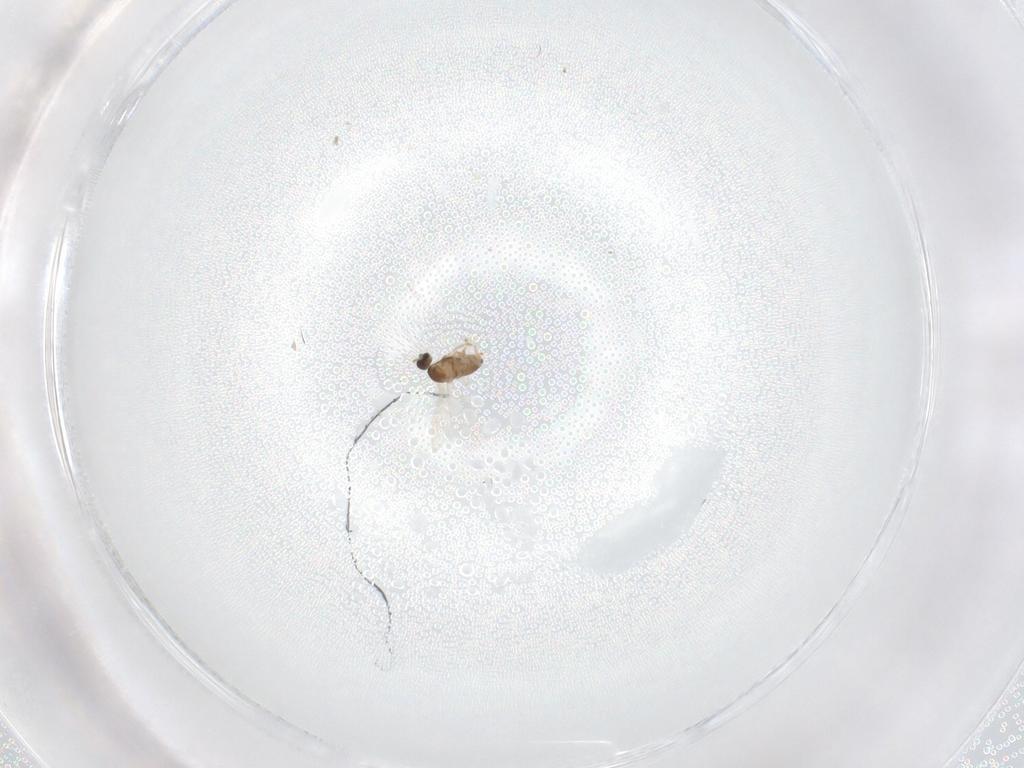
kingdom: Animalia
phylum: Arthropoda
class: Insecta
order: Diptera
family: Cecidomyiidae
